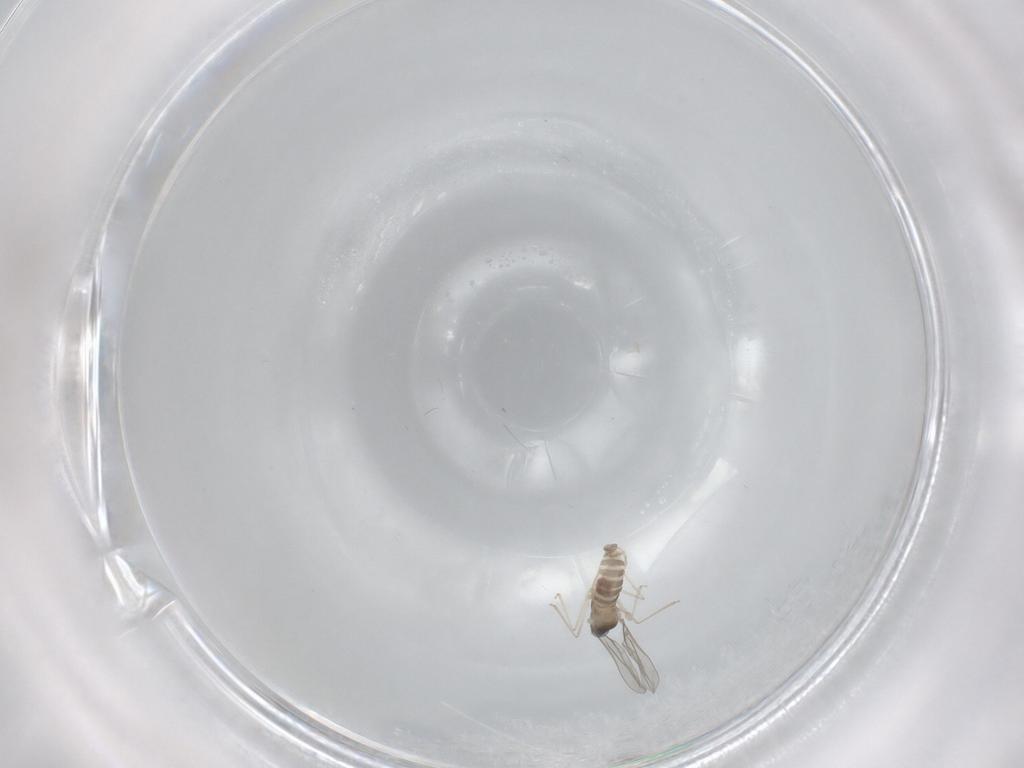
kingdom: Animalia
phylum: Arthropoda
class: Insecta
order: Diptera
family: Cecidomyiidae
